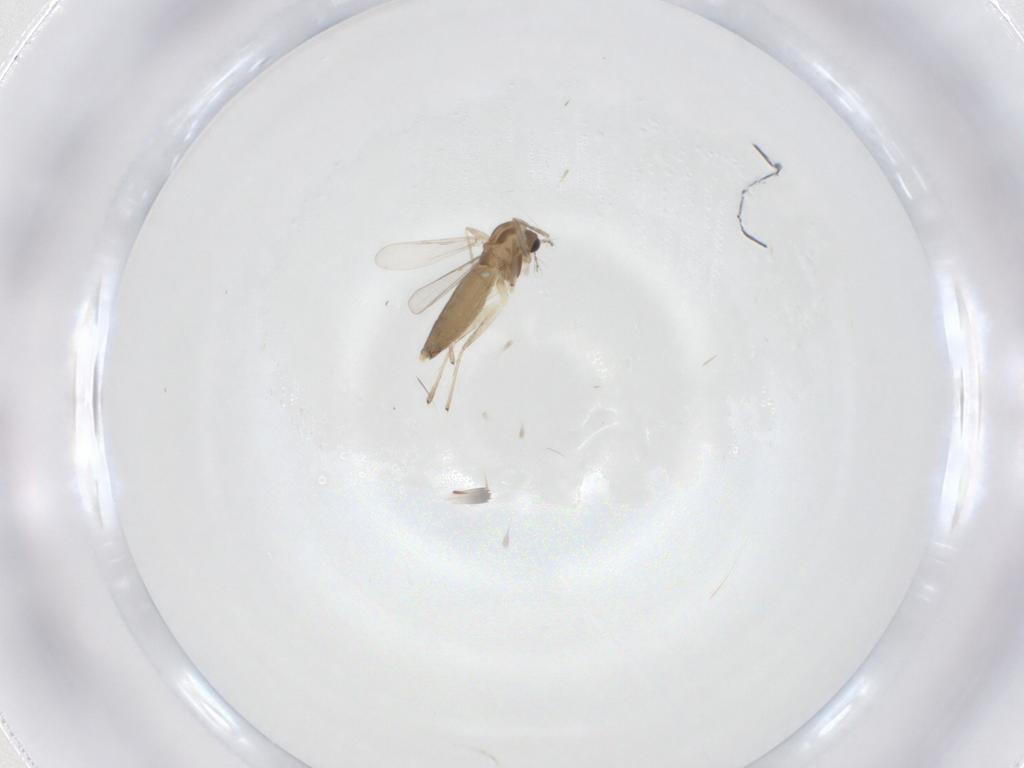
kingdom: Animalia
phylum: Arthropoda
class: Insecta
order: Diptera
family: Chironomidae
